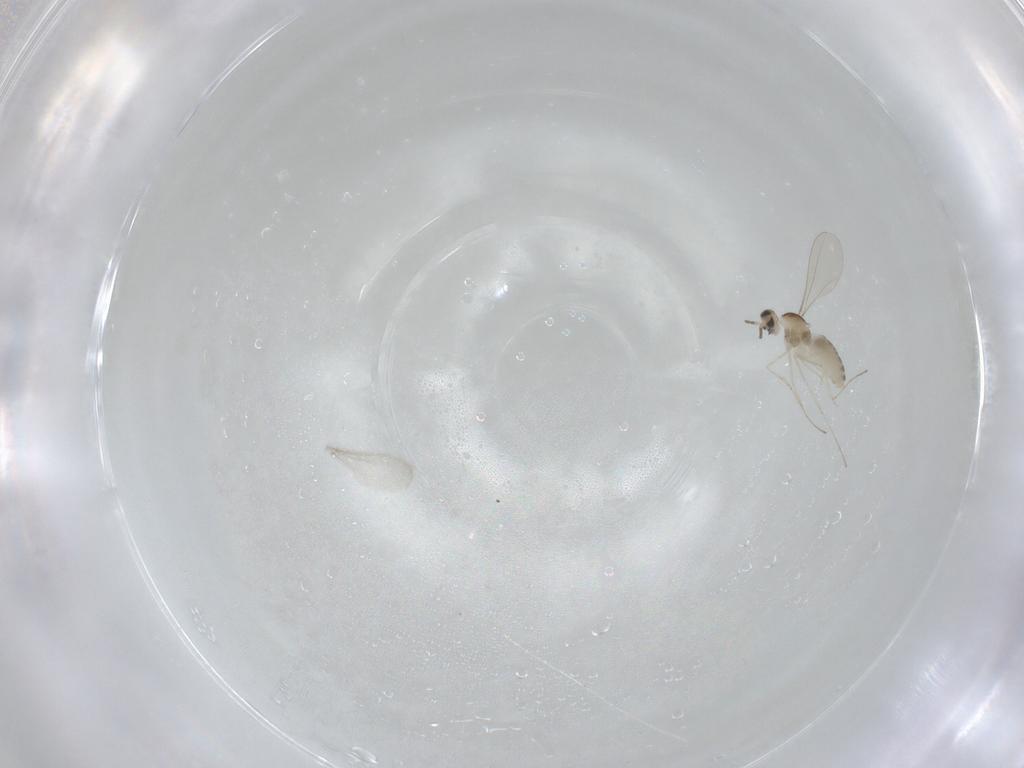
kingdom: Animalia
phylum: Arthropoda
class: Insecta
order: Diptera
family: Cecidomyiidae
